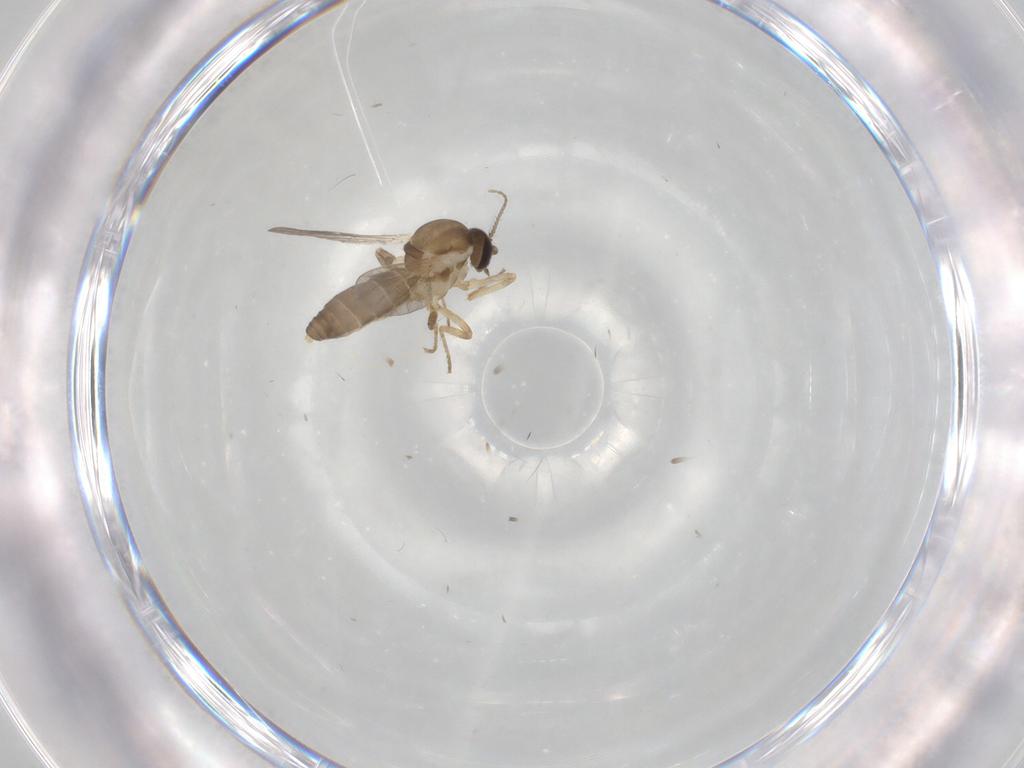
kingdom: Animalia
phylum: Arthropoda
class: Insecta
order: Diptera
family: Ceratopogonidae
